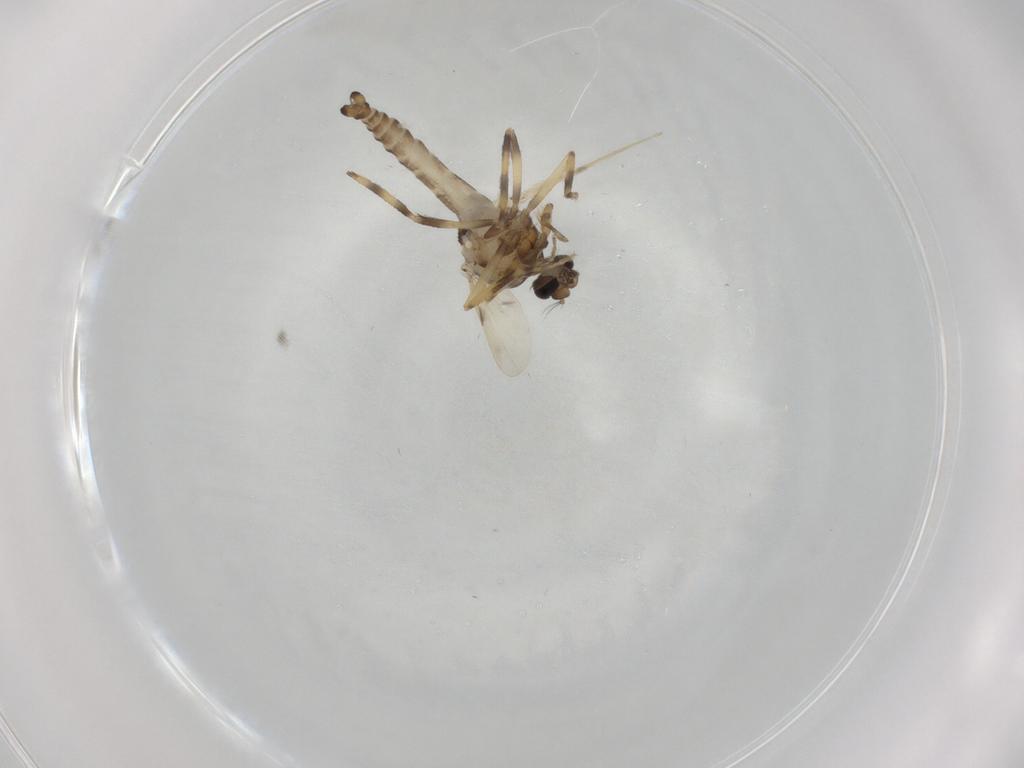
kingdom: Animalia
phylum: Arthropoda
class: Insecta
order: Diptera
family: Ceratopogonidae
